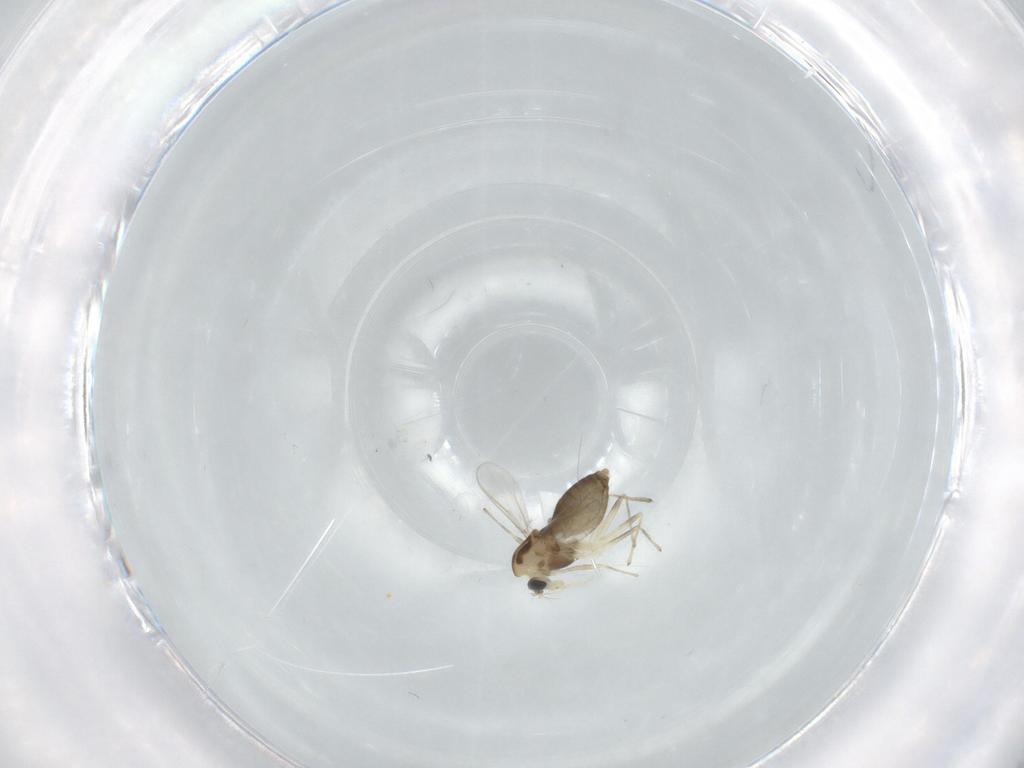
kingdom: Animalia
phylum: Arthropoda
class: Insecta
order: Diptera
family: Chironomidae
